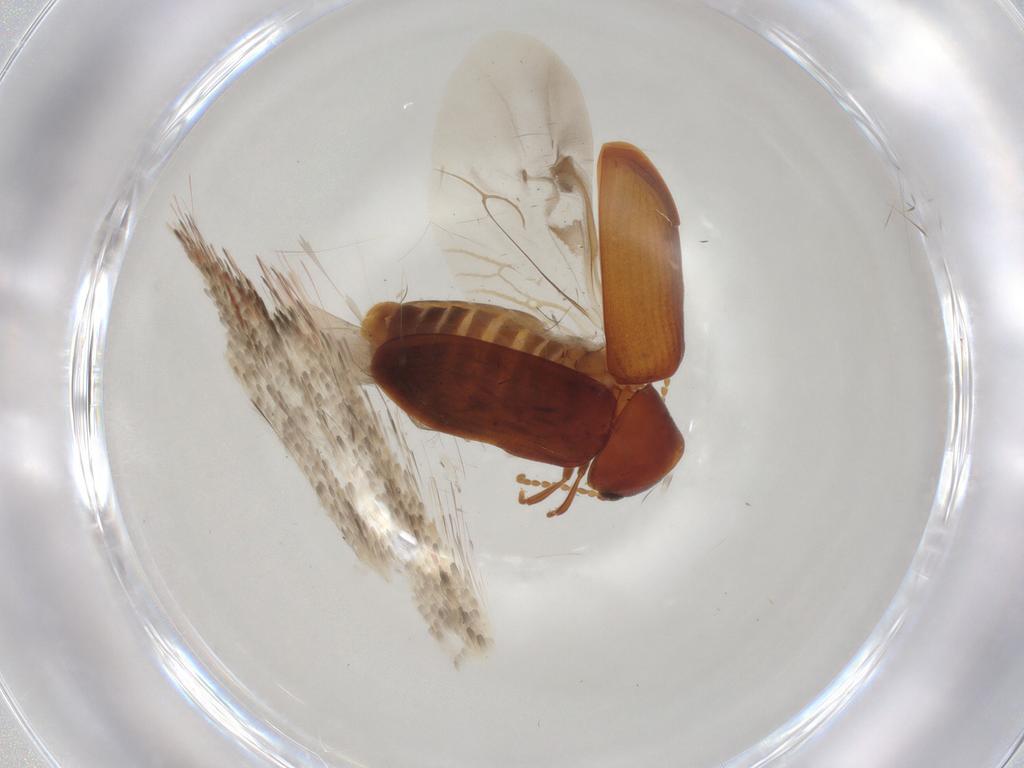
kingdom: Animalia
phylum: Arthropoda
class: Insecta
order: Coleoptera
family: Ptinidae
